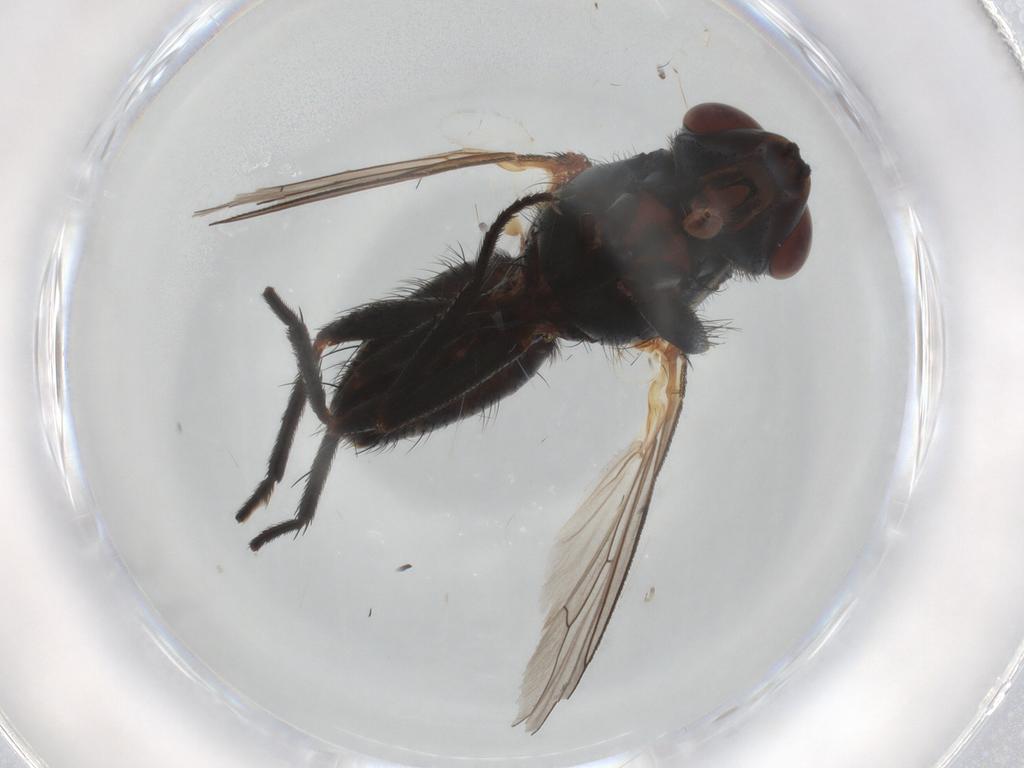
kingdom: Animalia
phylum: Arthropoda
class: Insecta
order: Diptera
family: Anthomyiidae
